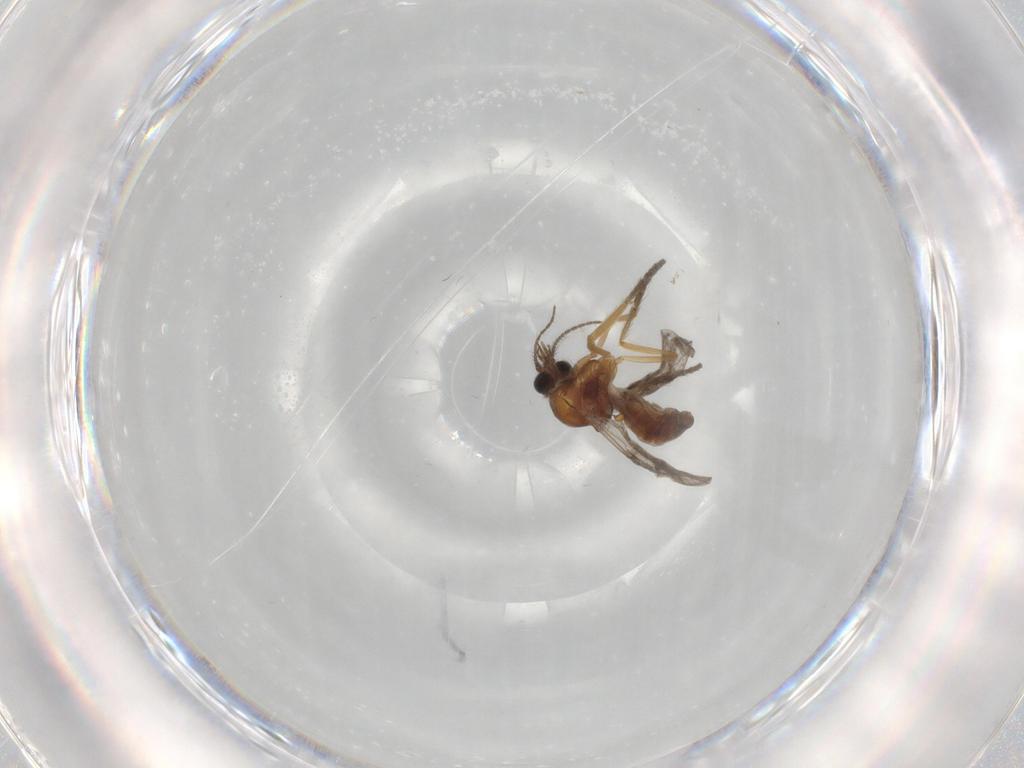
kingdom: Animalia
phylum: Arthropoda
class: Insecta
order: Diptera
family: Ceratopogonidae
